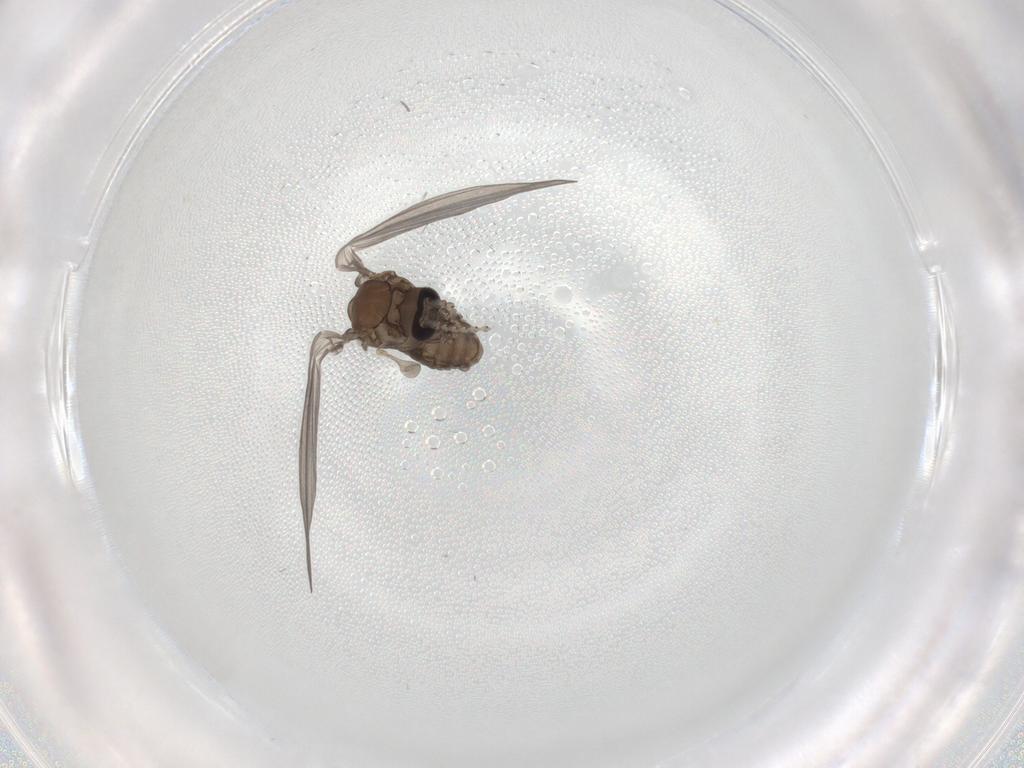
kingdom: Animalia
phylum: Arthropoda
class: Insecta
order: Diptera
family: Psychodidae
